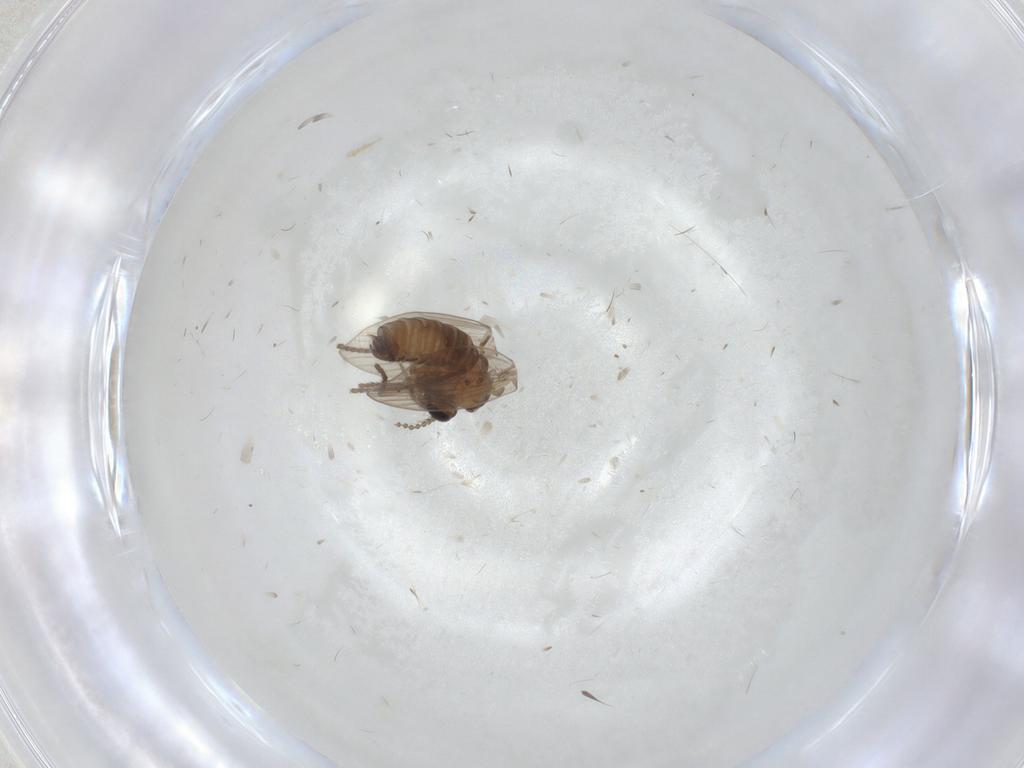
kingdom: Animalia
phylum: Arthropoda
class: Insecta
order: Diptera
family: Psychodidae
